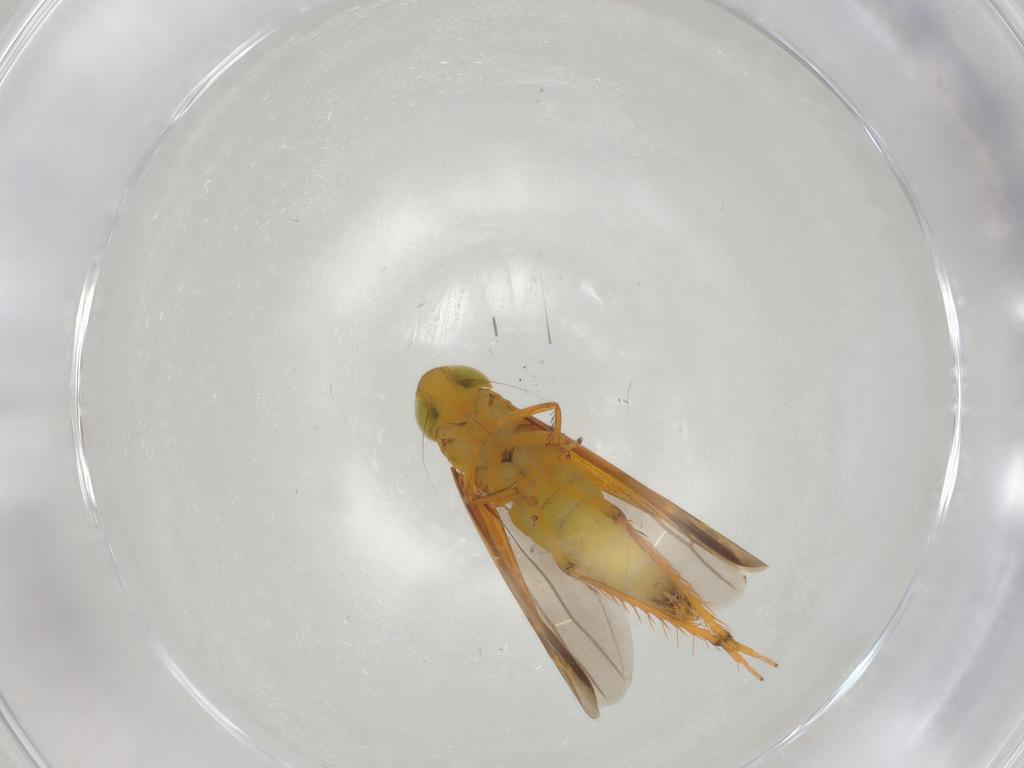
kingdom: Animalia
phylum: Arthropoda
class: Insecta
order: Hemiptera
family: Cicadellidae
